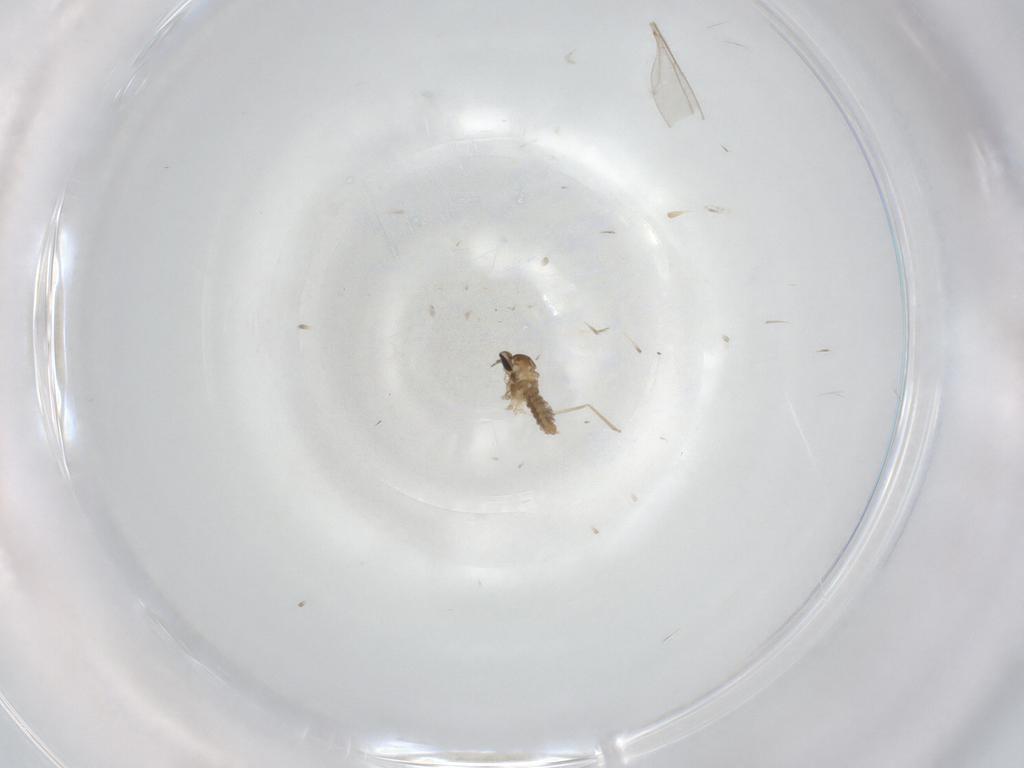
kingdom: Animalia
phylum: Arthropoda
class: Insecta
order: Diptera
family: Cecidomyiidae
